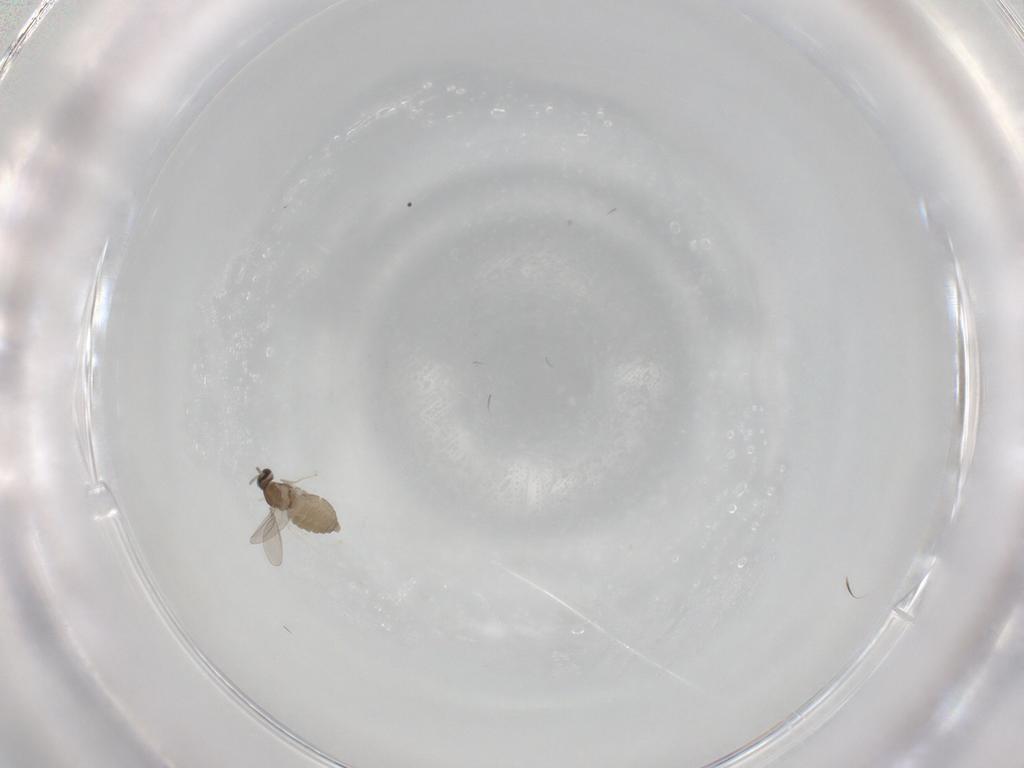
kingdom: Animalia
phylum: Arthropoda
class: Insecta
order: Diptera
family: Cecidomyiidae
